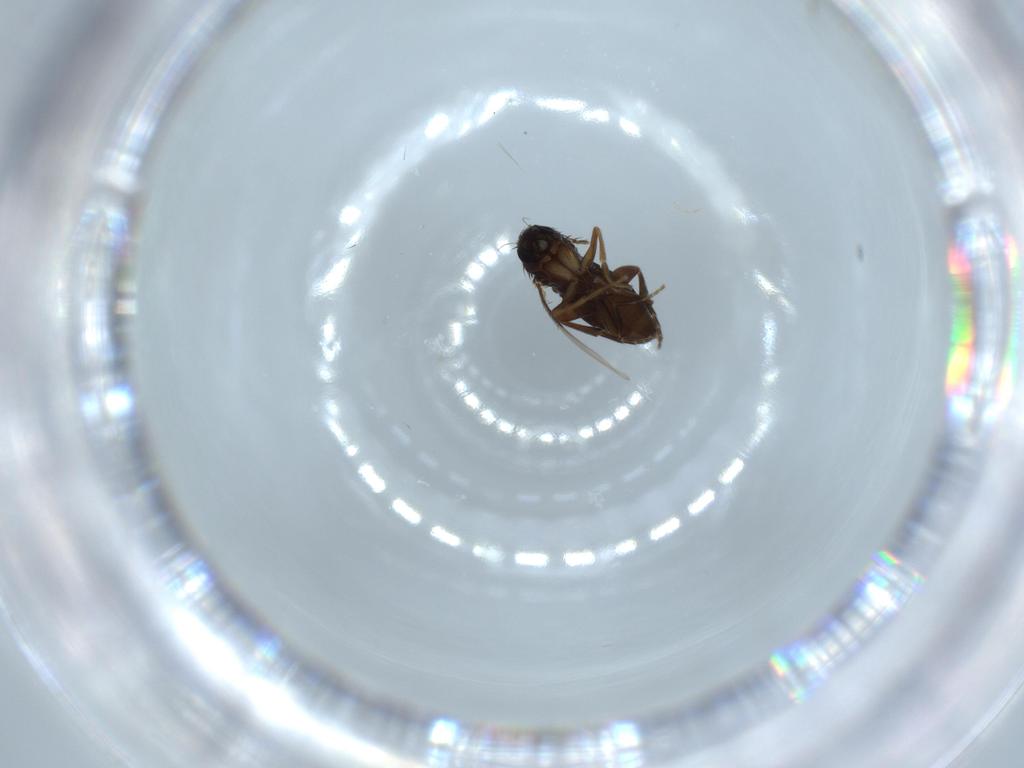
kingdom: Animalia
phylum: Arthropoda
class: Insecta
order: Diptera
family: Phoridae
